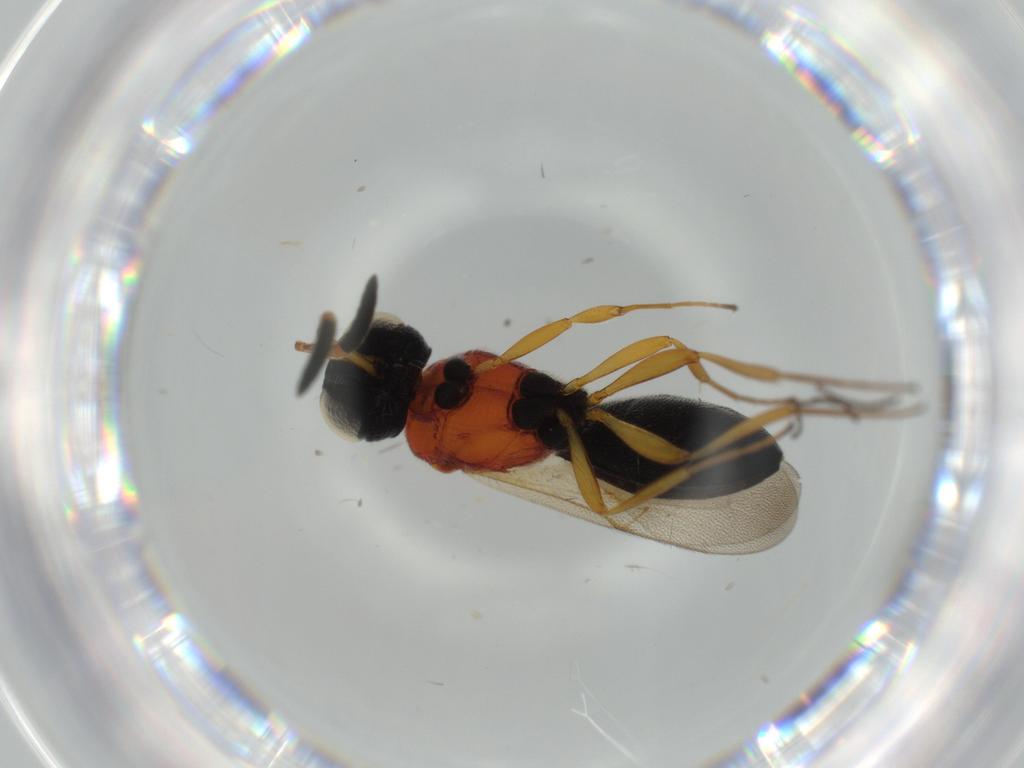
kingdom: Animalia
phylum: Arthropoda
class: Insecta
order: Hymenoptera
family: Scelionidae
